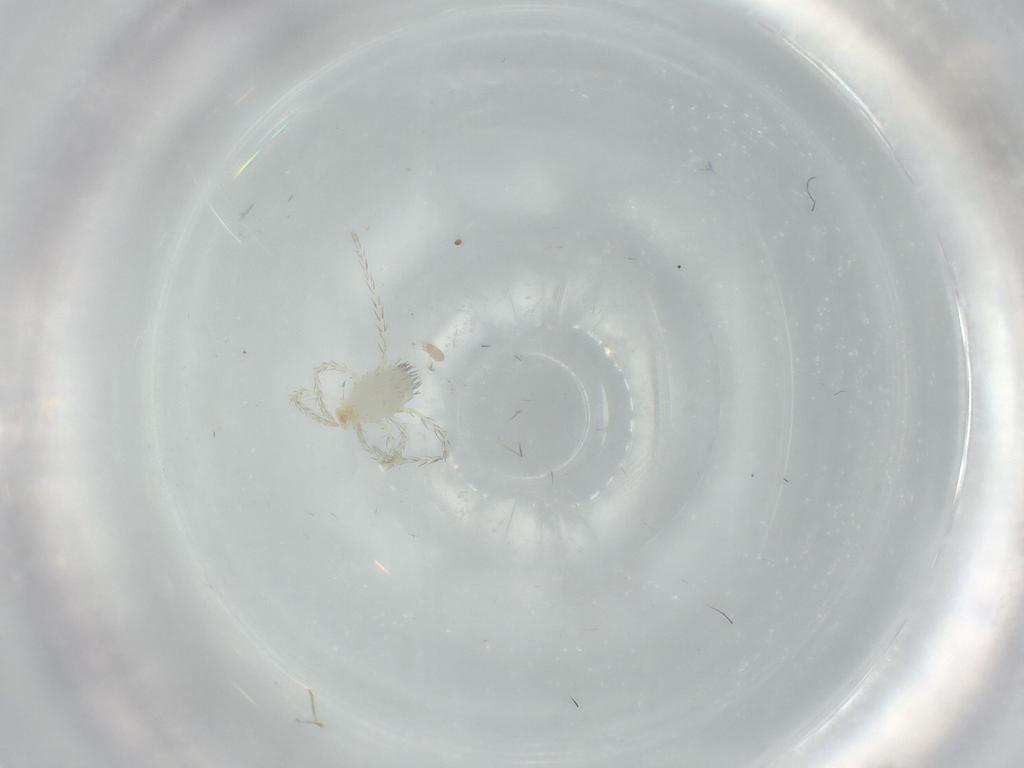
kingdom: Animalia
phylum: Arthropoda
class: Arachnida
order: Trombidiformes
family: Erythraeidae
